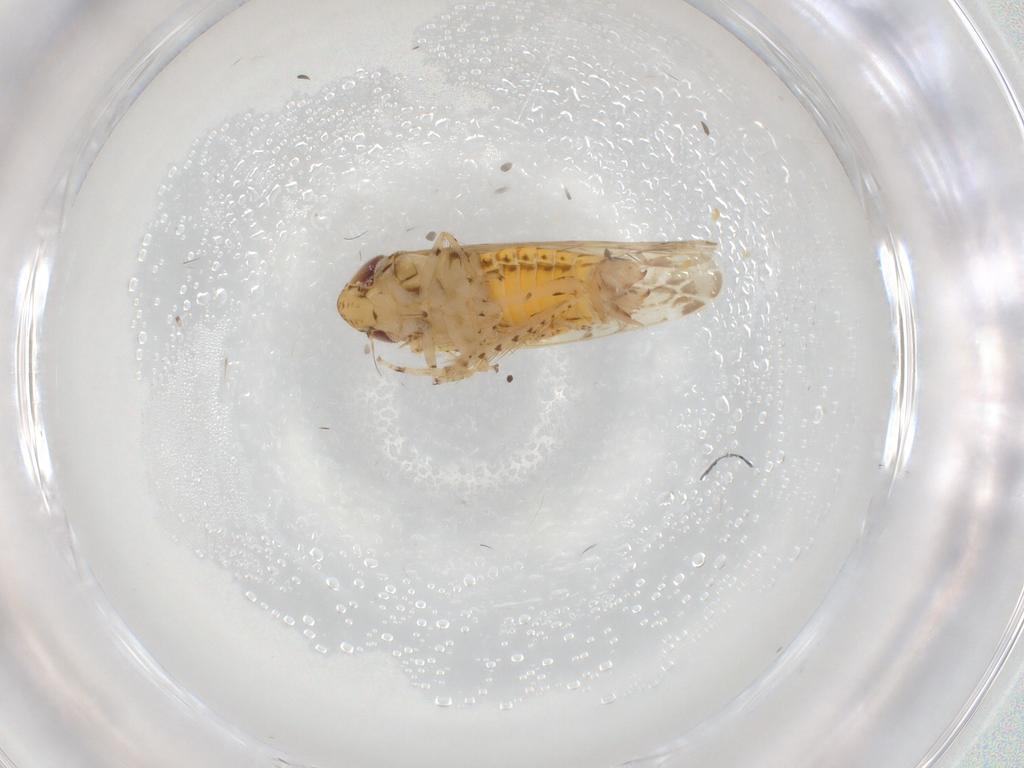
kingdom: Animalia
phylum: Arthropoda
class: Insecta
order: Hemiptera
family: Cicadellidae
